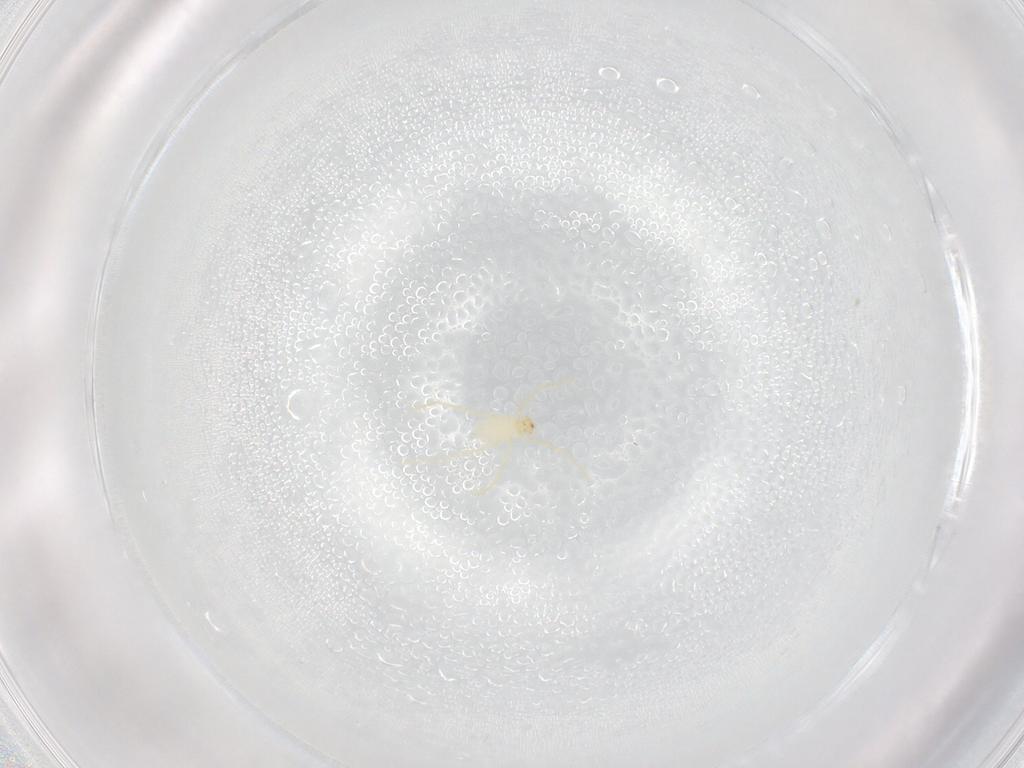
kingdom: Animalia
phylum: Arthropoda
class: Arachnida
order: Trombidiformes
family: Erythraeidae
